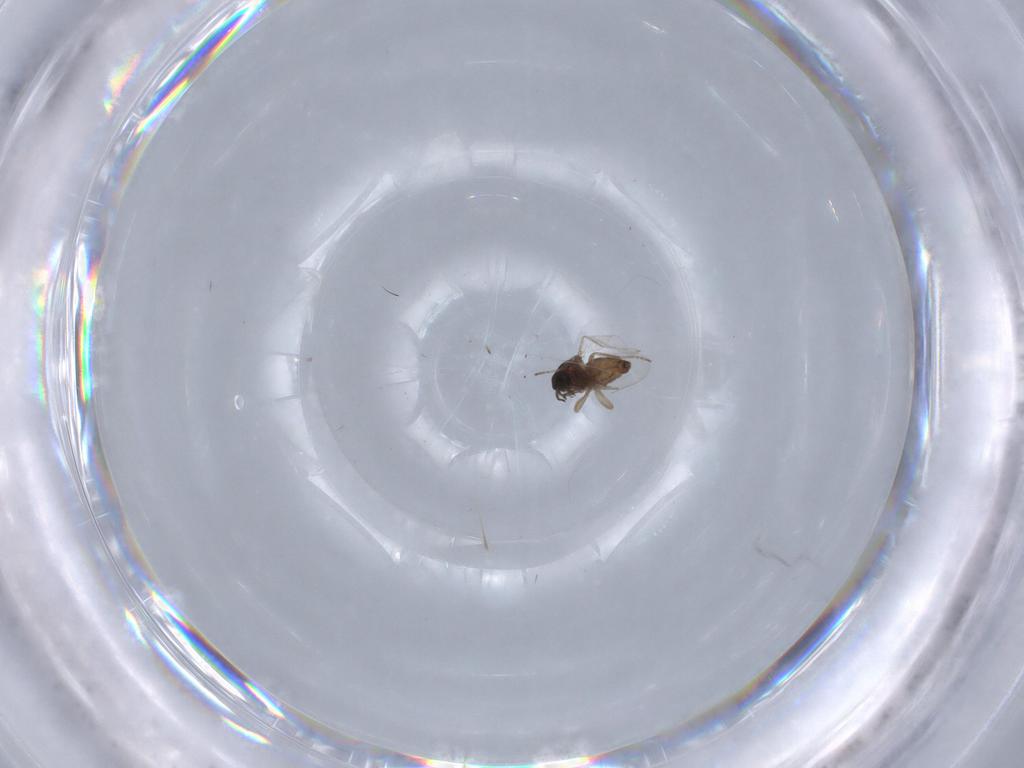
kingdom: Animalia
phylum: Arthropoda
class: Insecta
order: Diptera
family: Ceratopogonidae
